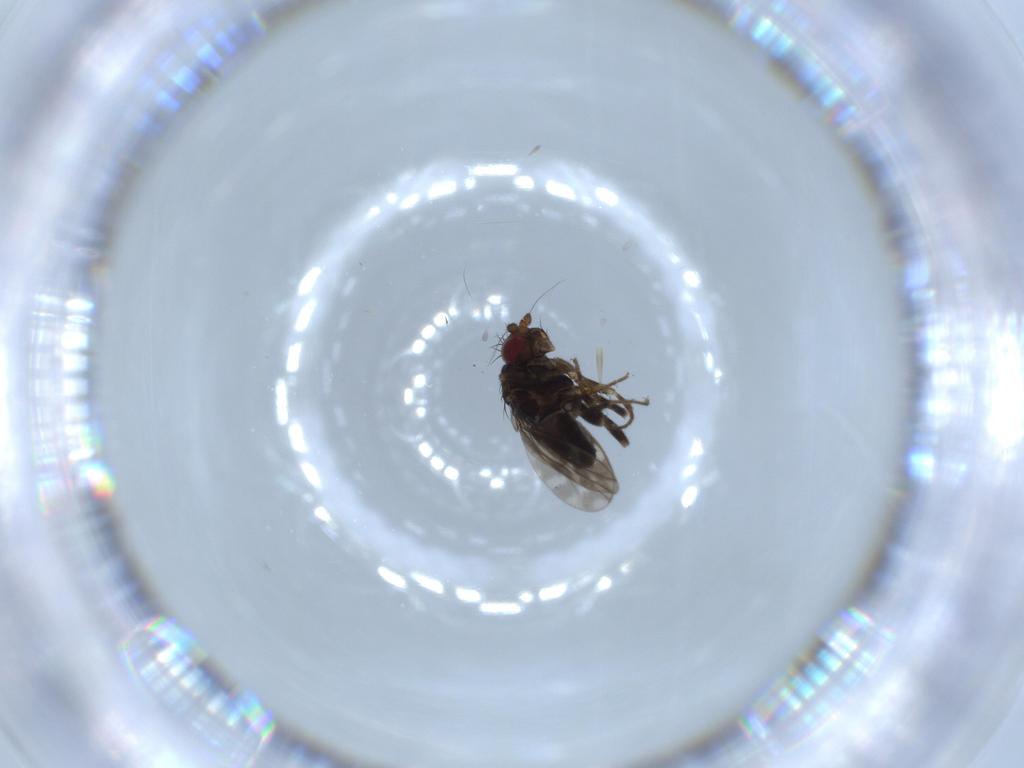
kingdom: Animalia
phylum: Arthropoda
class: Insecta
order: Diptera
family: Sphaeroceridae
